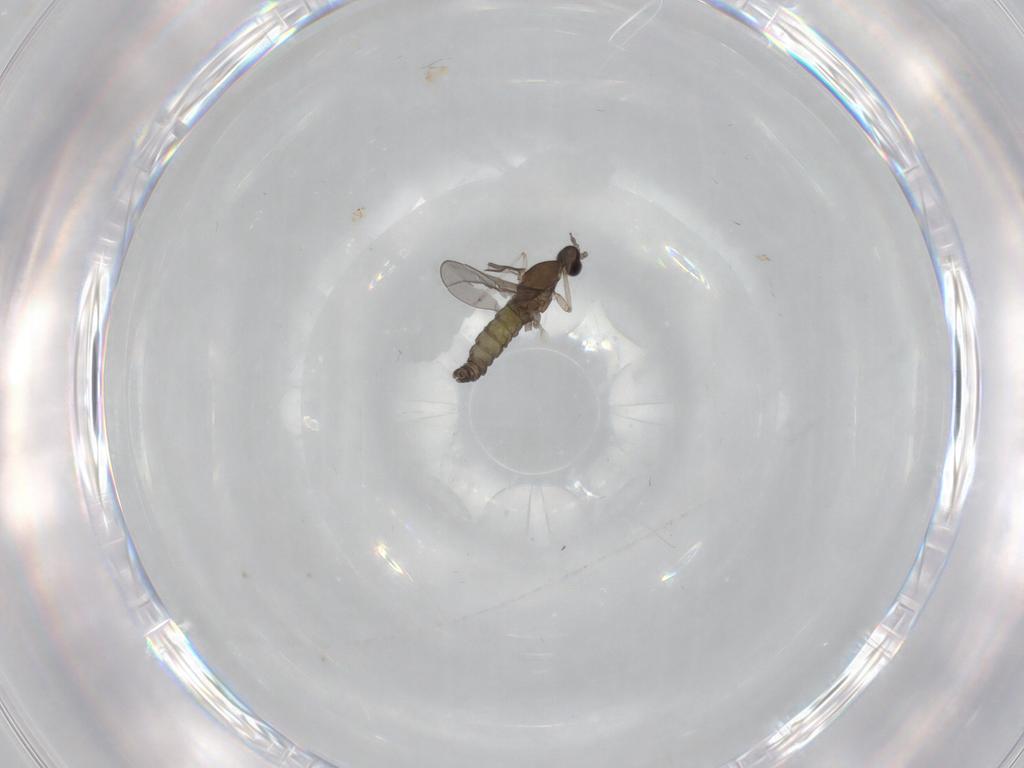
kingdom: Animalia
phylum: Arthropoda
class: Insecta
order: Diptera
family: Cecidomyiidae
